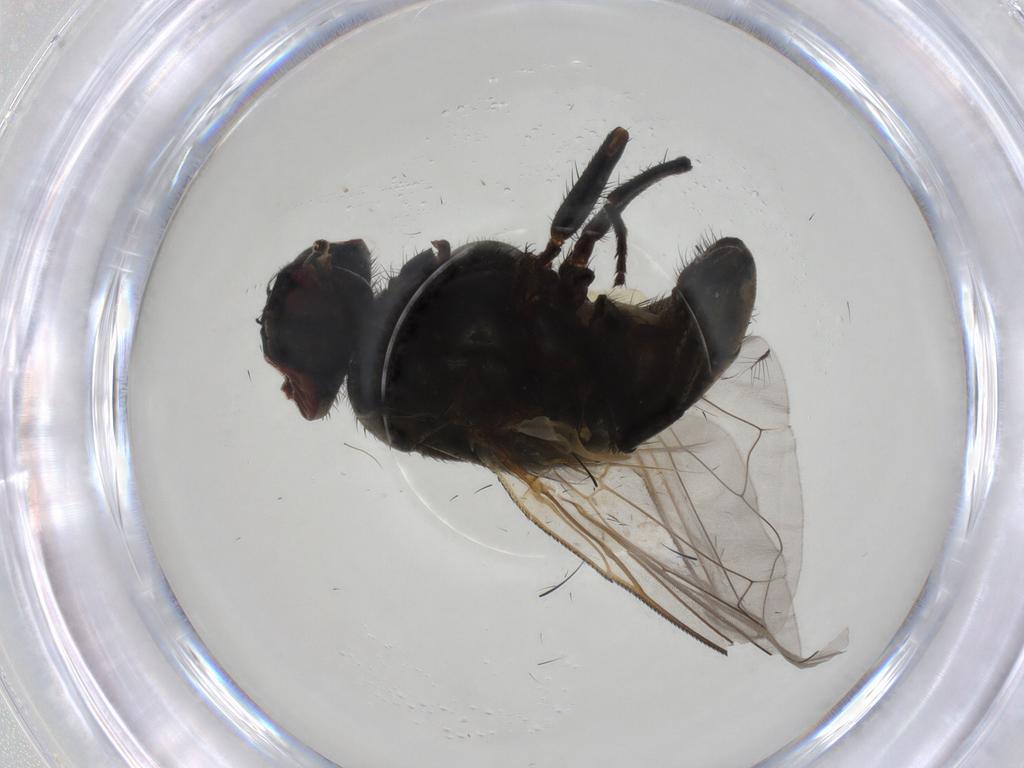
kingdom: Animalia
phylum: Arthropoda
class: Insecta
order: Diptera
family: Muscidae
